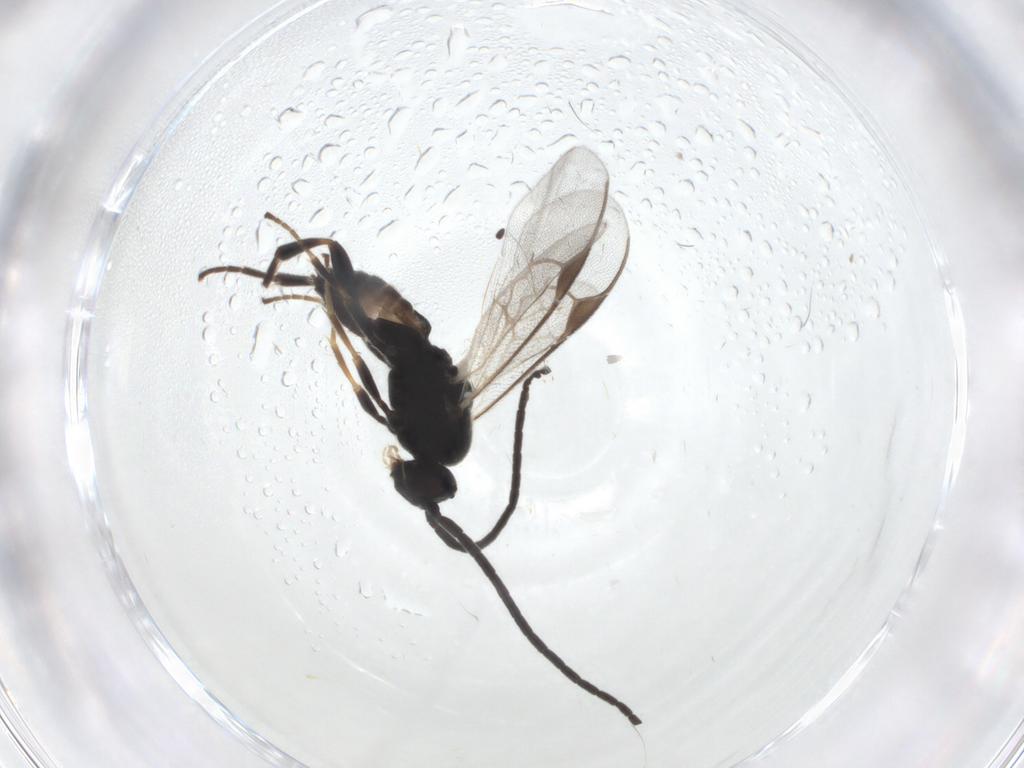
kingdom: Animalia
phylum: Arthropoda
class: Insecta
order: Hymenoptera
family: Braconidae
